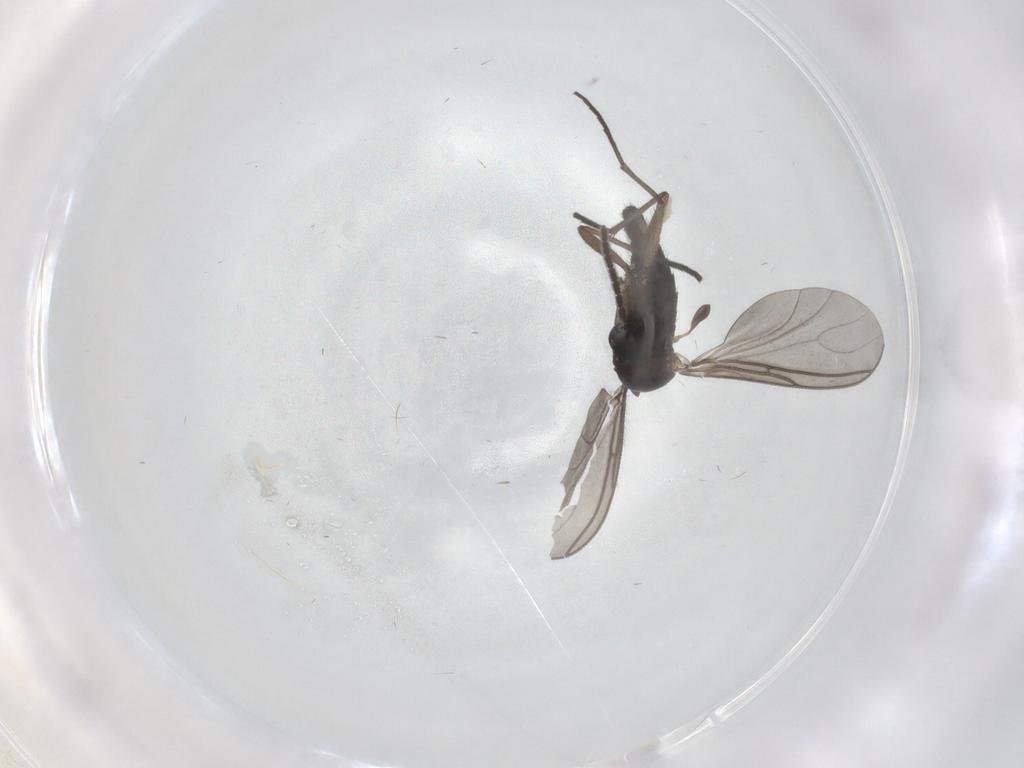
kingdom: Animalia
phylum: Arthropoda
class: Insecta
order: Diptera
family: Sciaridae
